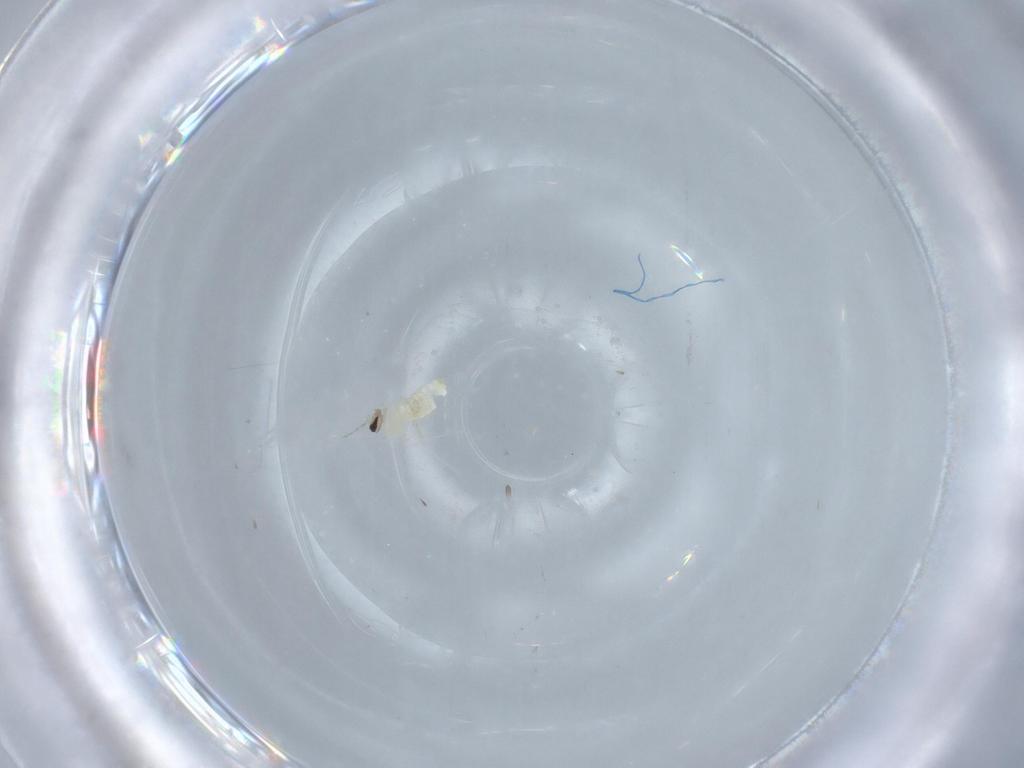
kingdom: Animalia
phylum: Arthropoda
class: Insecta
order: Diptera
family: Cecidomyiidae
